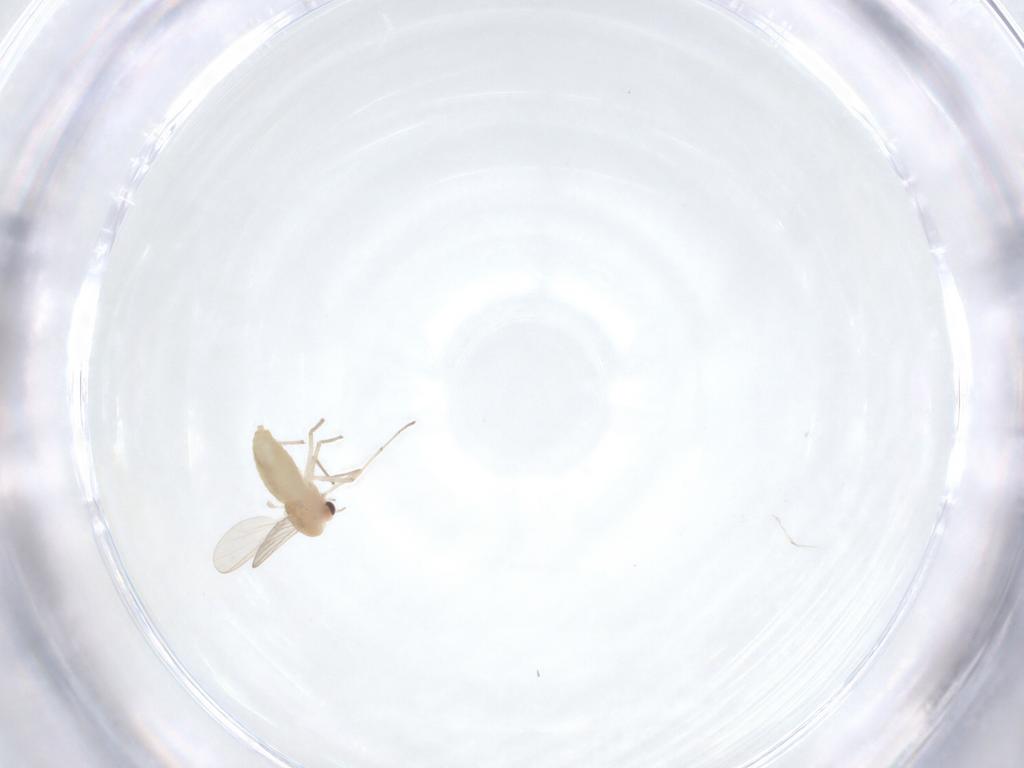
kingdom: Animalia
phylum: Arthropoda
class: Insecta
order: Diptera
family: Chironomidae
